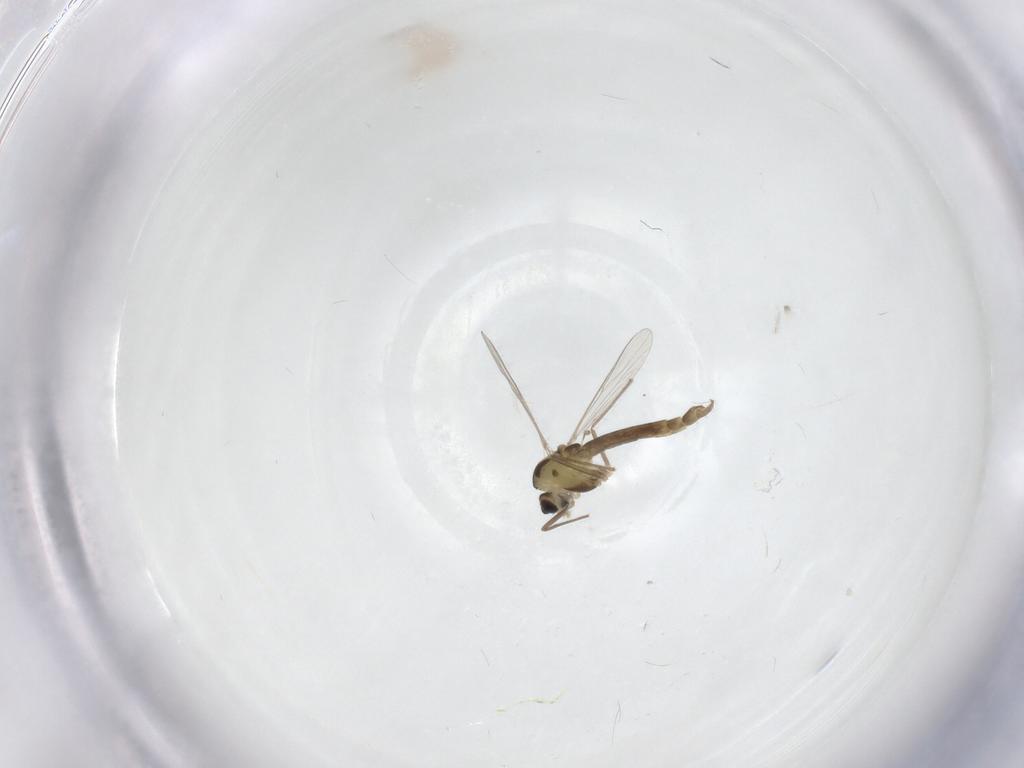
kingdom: Animalia
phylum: Arthropoda
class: Insecta
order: Diptera
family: Chironomidae
